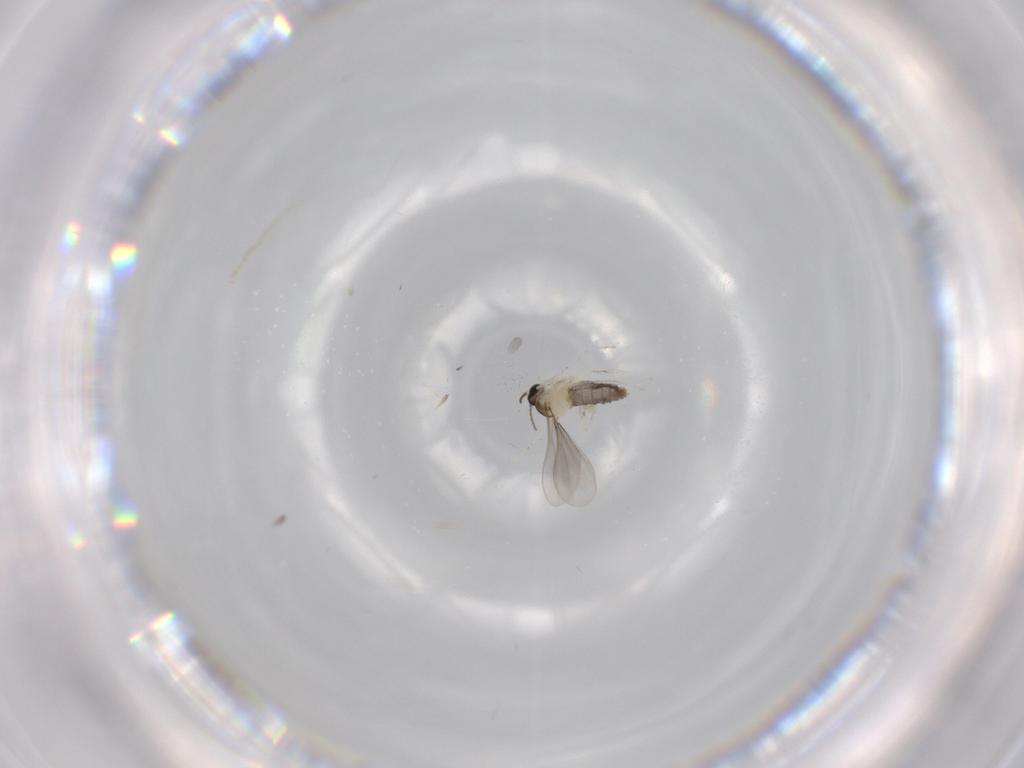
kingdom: Animalia
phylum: Arthropoda
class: Insecta
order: Diptera
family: Cecidomyiidae
